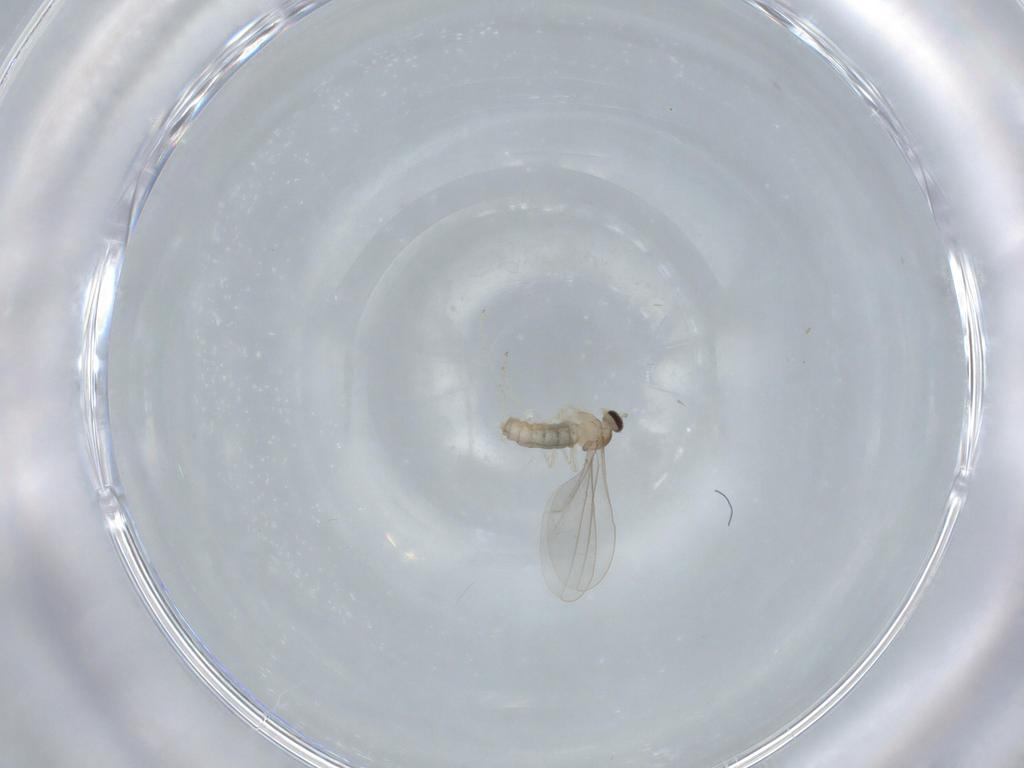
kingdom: Animalia
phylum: Arthropoda
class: Insecta
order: Diptera
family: Cecidomyiidae
